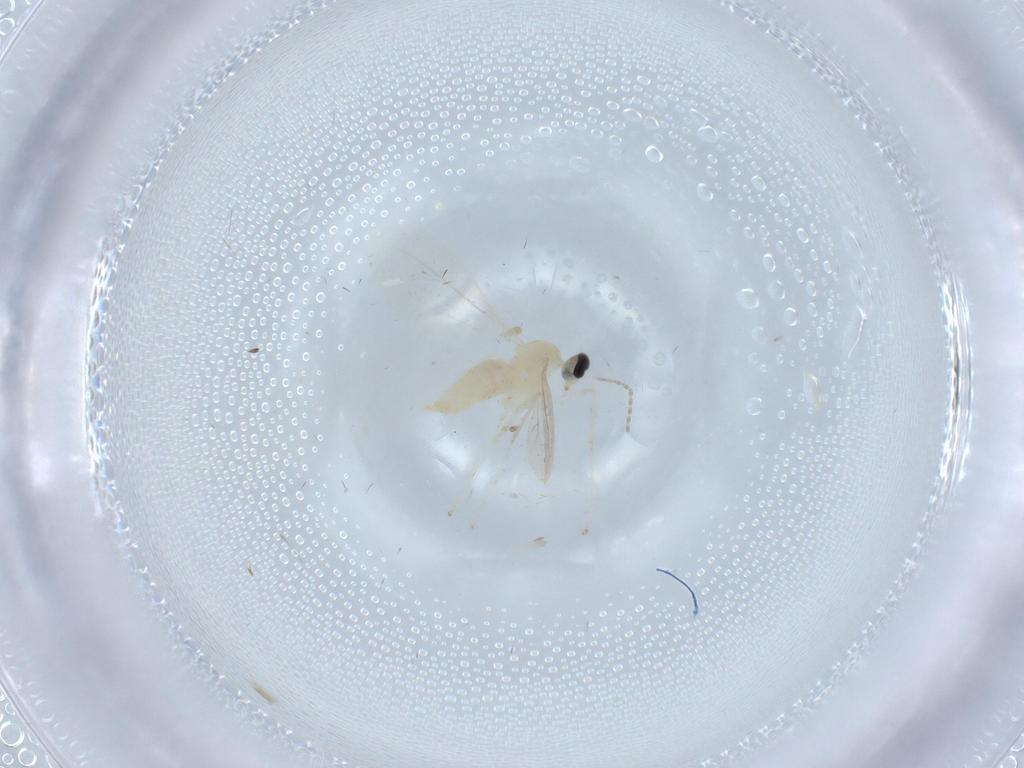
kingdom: Animalia
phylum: Arthropoda
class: Insecta
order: Diptera
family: Cecidomyiidae
